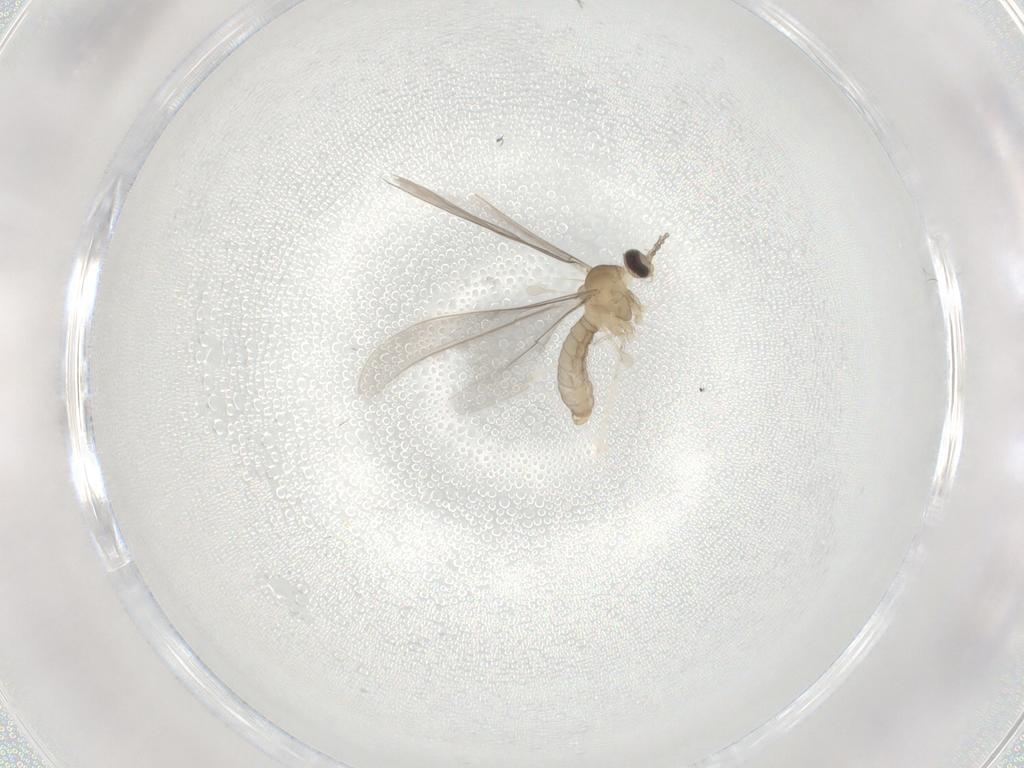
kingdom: Animalia
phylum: Arthropoda
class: Insecta
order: Diptera
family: Cecidomyiidae
